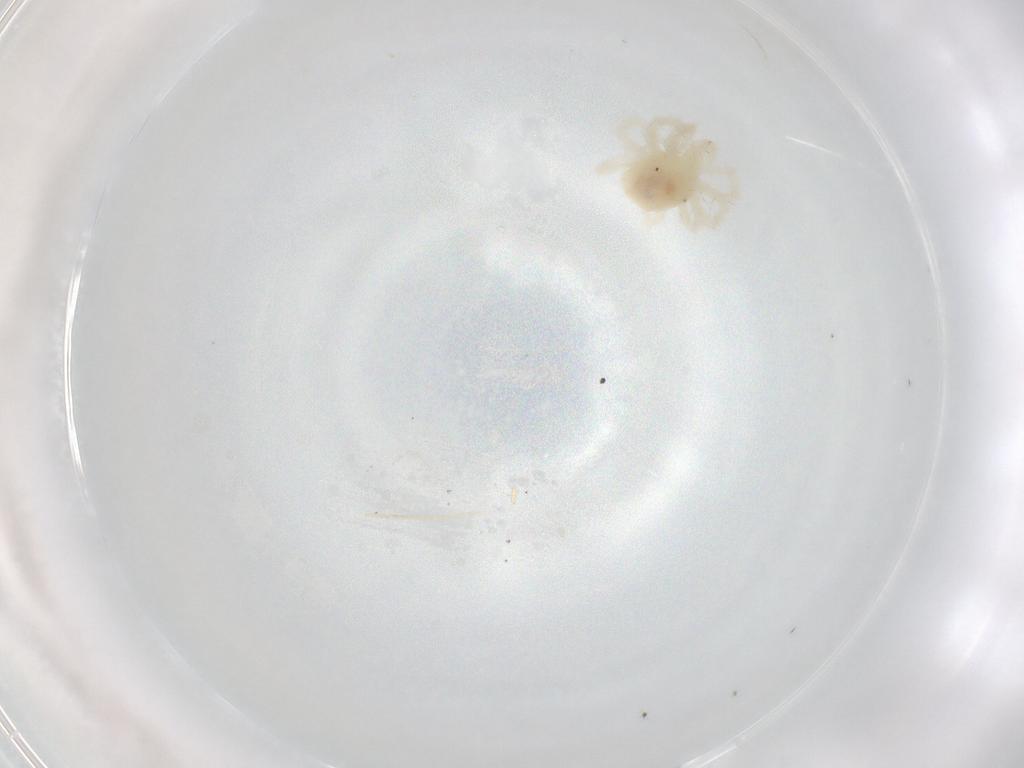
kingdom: Animalia
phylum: Arthropoda
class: Arachnida
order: Trombidiformes
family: Anystidae
